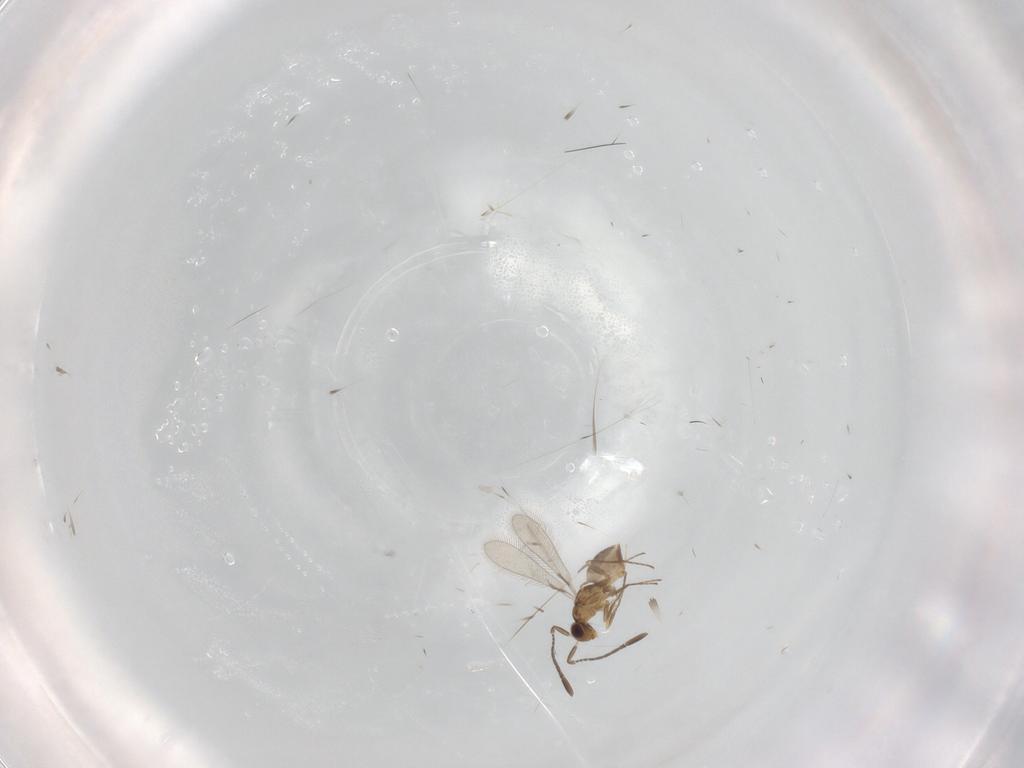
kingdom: Animalia
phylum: Arthropoda
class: Insecta
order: Hymenoptera
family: Mymaridae
